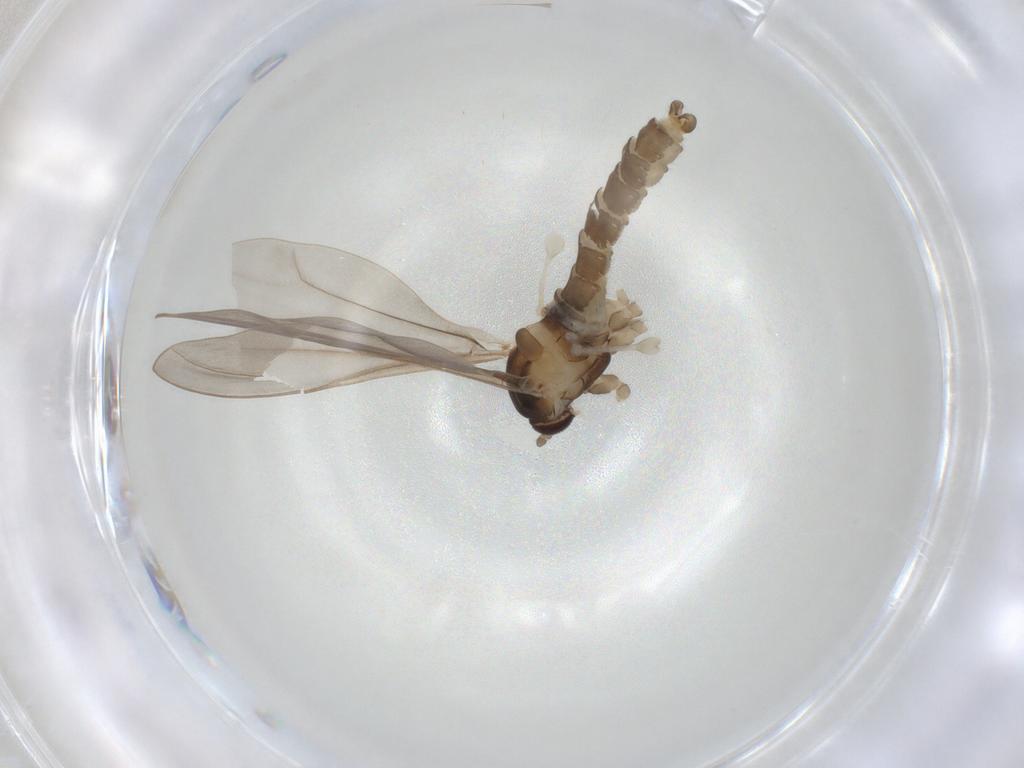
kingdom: Animalia
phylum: Arthropoda
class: Insecta
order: Diptera
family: Cecidomyiidae
